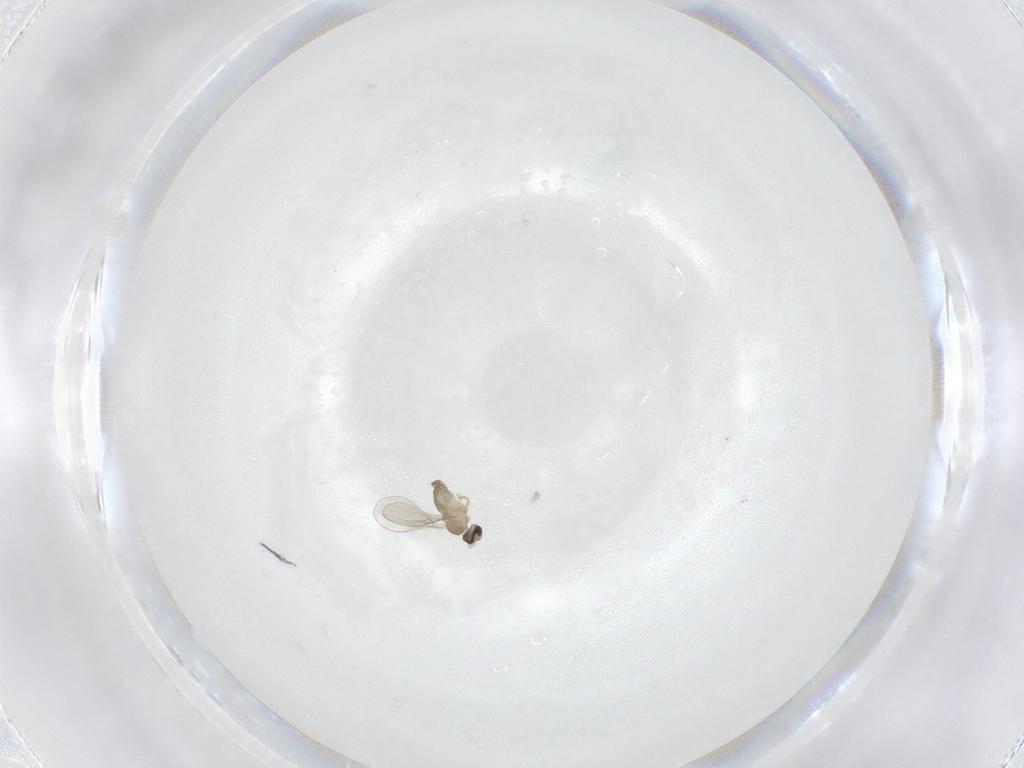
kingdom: Animalia
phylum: Arthropoda
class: Insecta
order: Diptera
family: Cecidomyiidae
